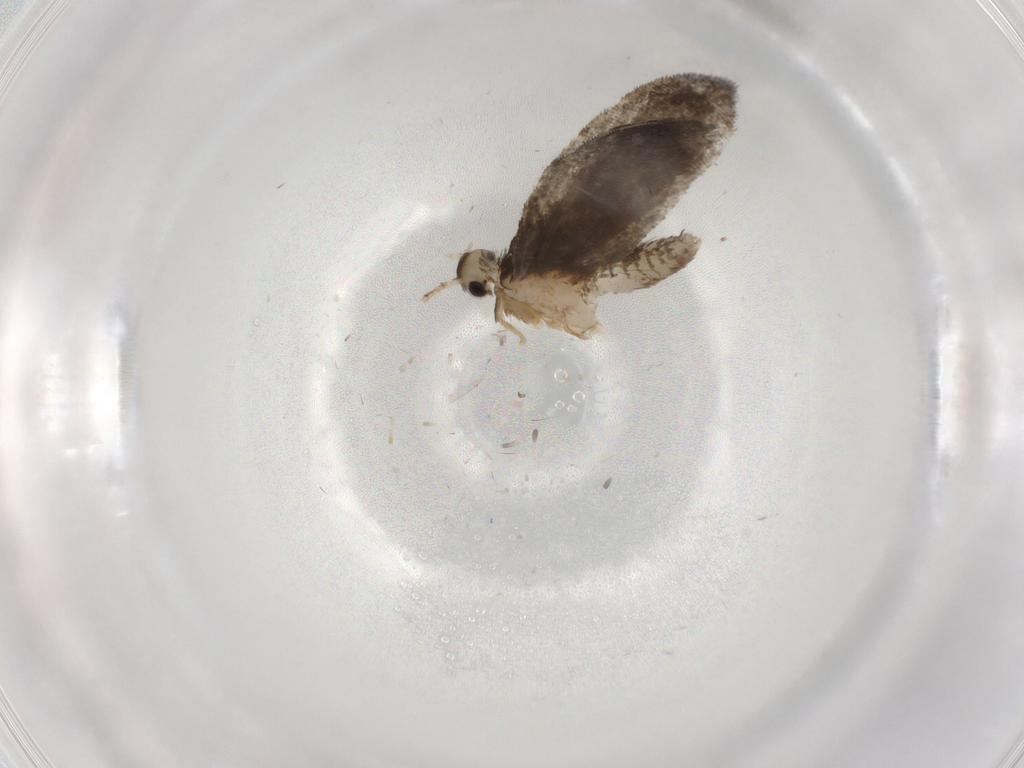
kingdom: Animalia
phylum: Arthropoda
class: Insecta
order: Lepidoptera
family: Psychidae
